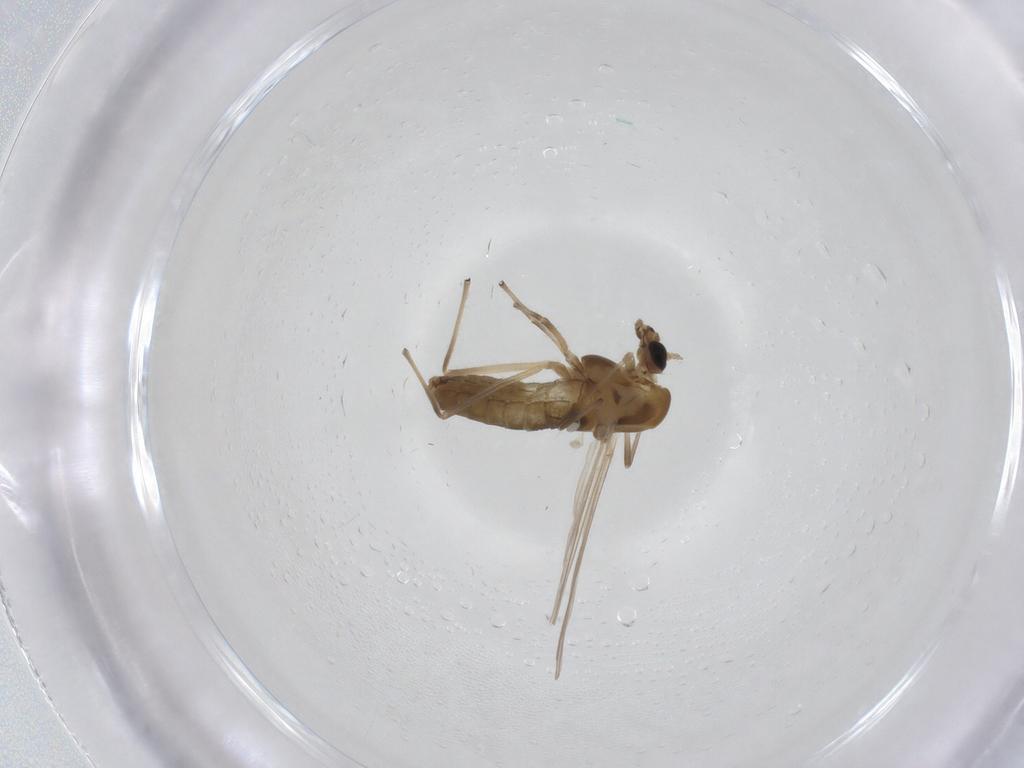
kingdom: Animalia
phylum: Arthropoda
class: Insecta
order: Diptera
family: Chironomidae
